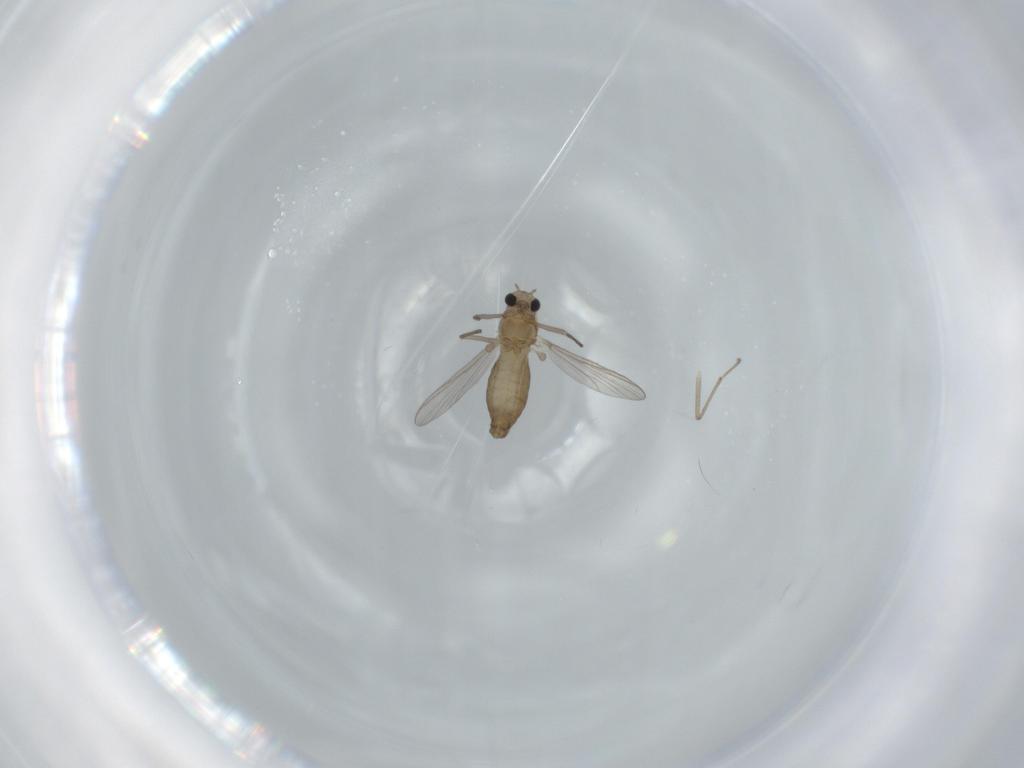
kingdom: Animalia
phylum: Arthropoda
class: Insecta
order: Diptera
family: Chironomidae
